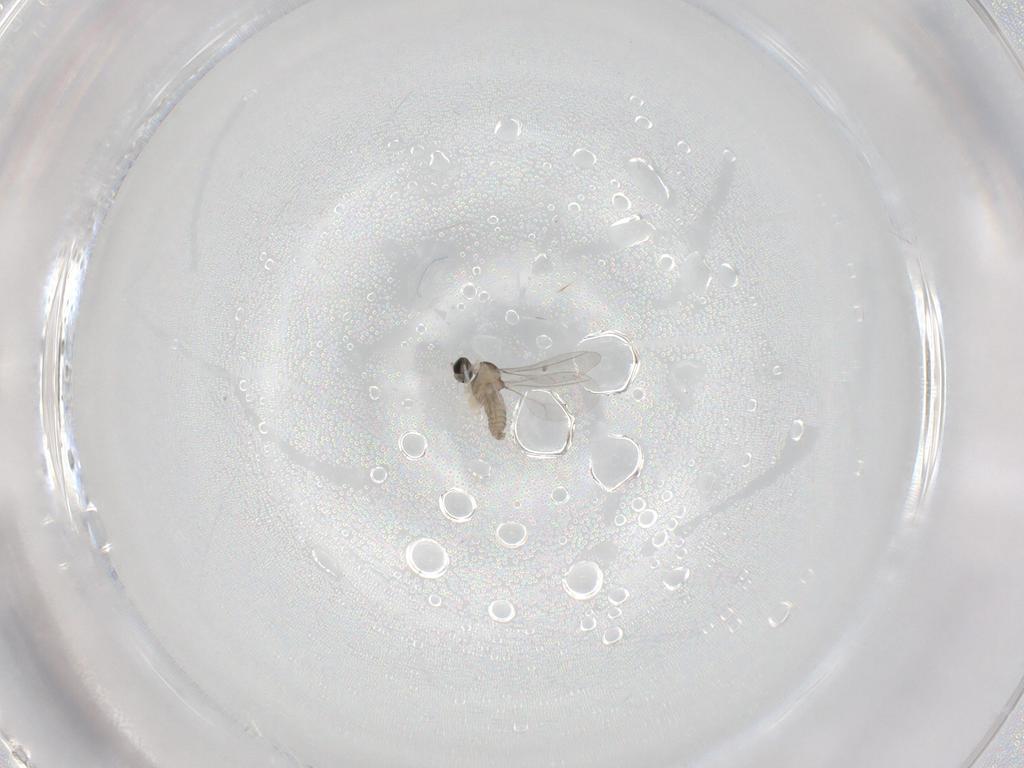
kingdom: Animalia
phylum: Arthropoda
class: Insecta
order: Diptera
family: Cecidomyiidae
